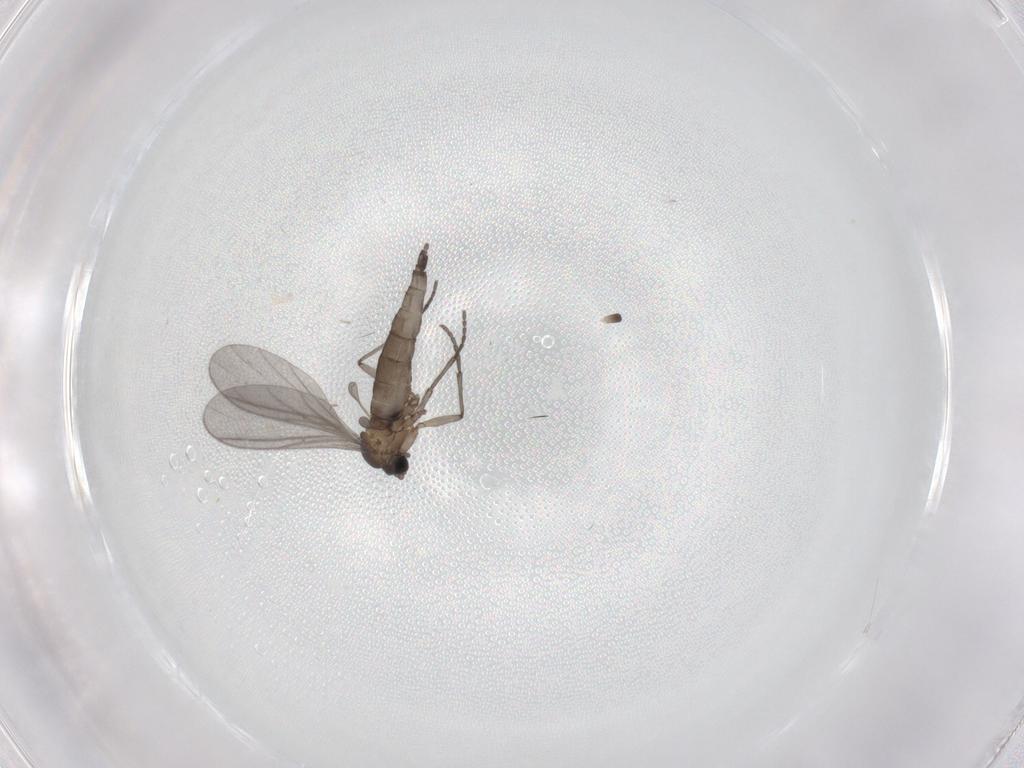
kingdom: Animalia
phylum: Arthropoda
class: Insecta
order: Diptera
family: Sciaridae
